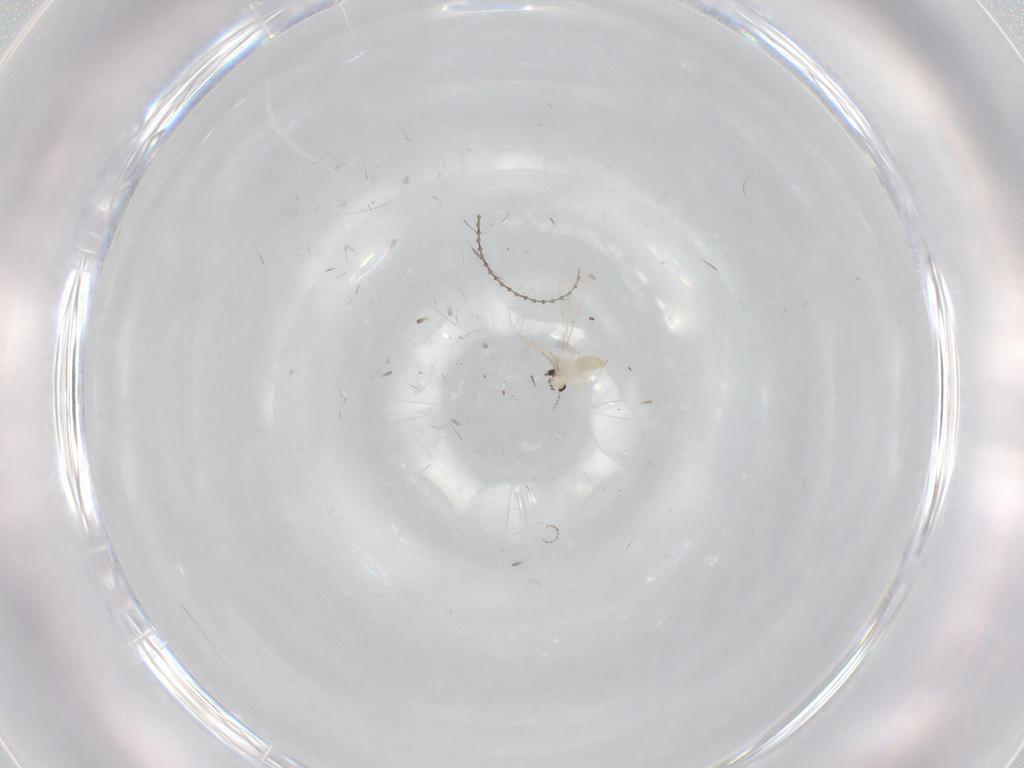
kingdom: Animalia
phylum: Arthropoda
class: Insecta
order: Diptera
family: Cecidomyiidae
